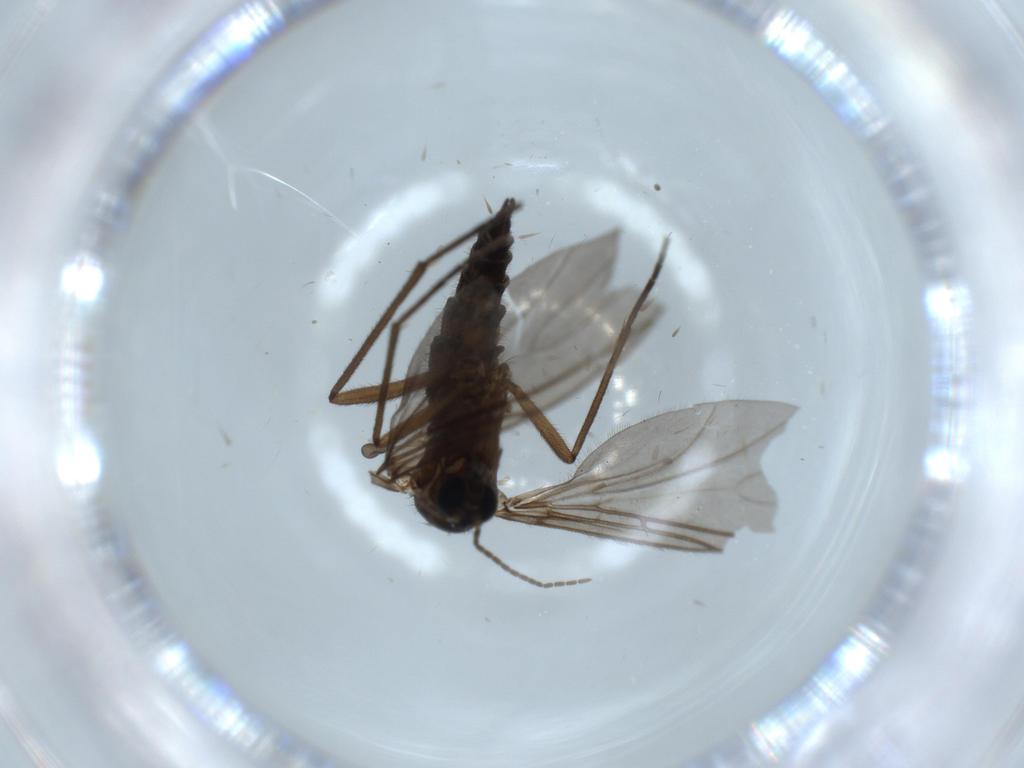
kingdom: Animalia
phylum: Arthropoda
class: Insecta
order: Diptera
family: Sciaridae
